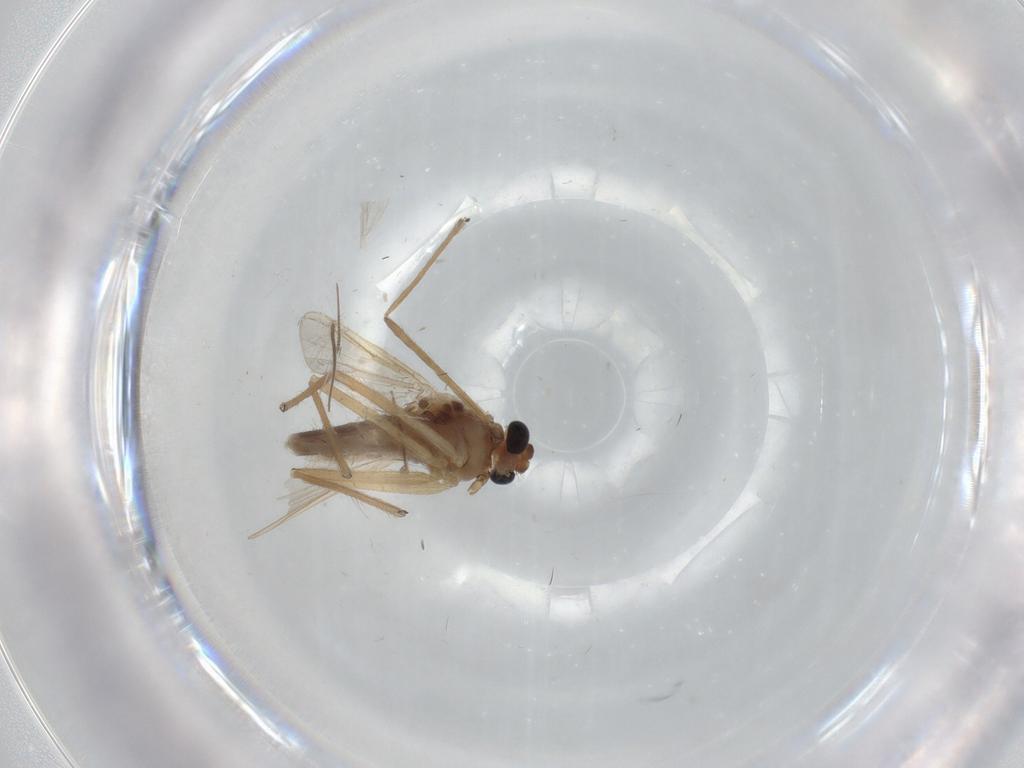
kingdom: Animalia
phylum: Arthropoda
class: Insecta
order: Diptera
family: Chironomidae
